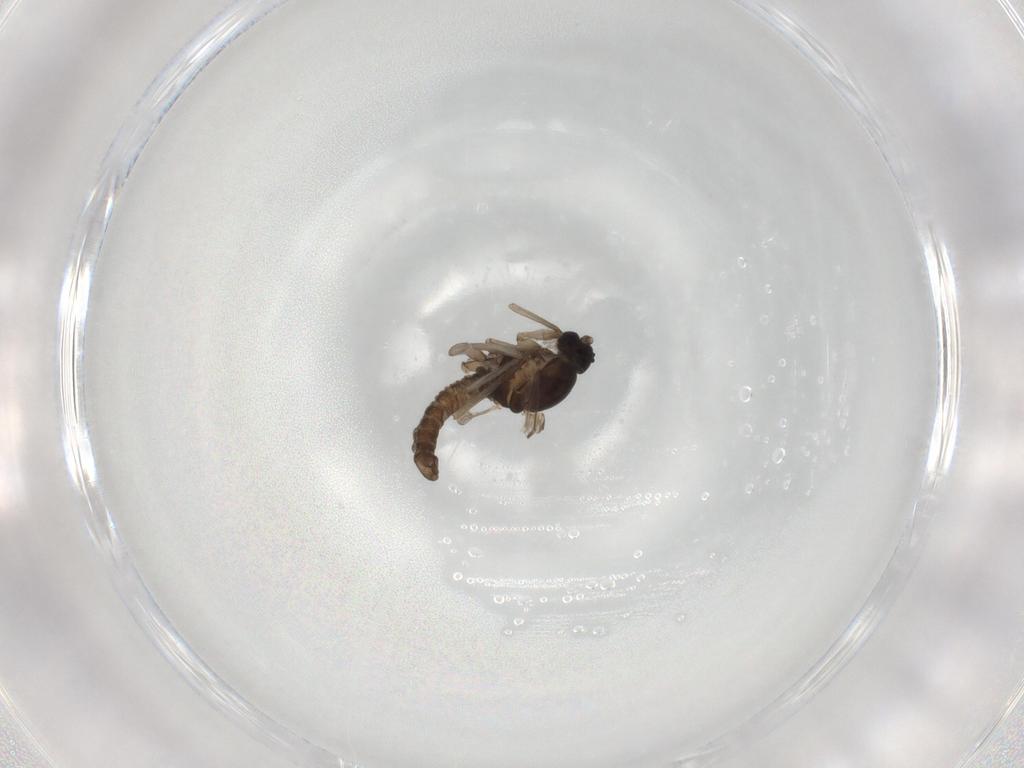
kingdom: Animalia
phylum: Arthropoda
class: Insecta
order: Diptera
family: Cecidomyiidae
